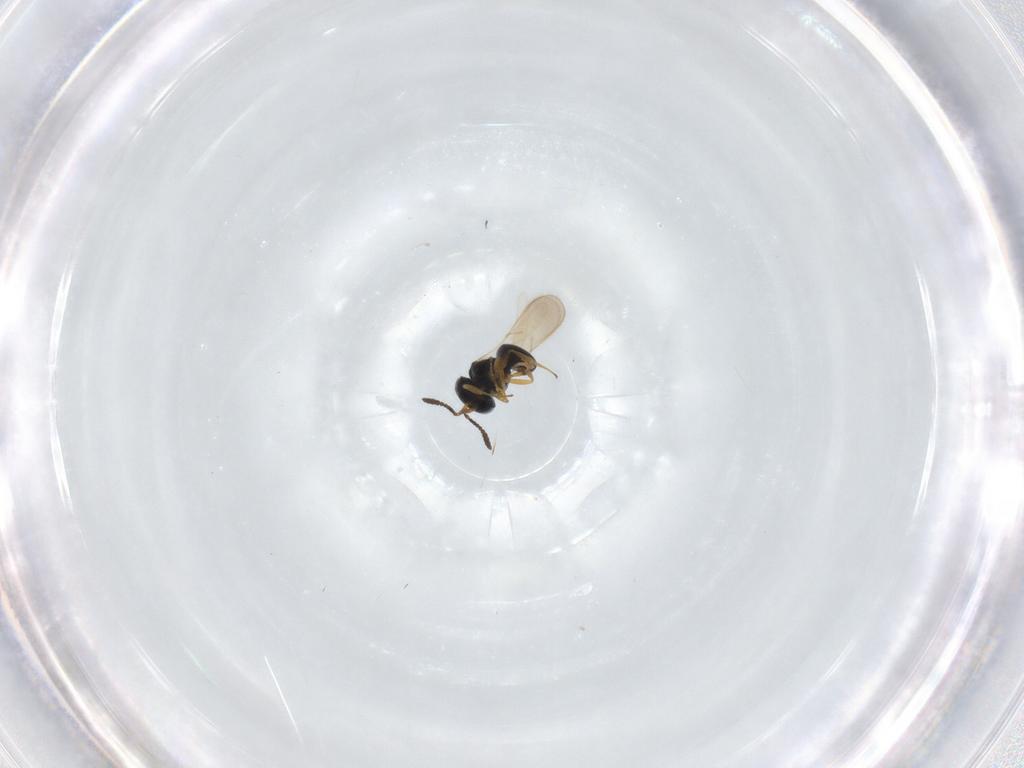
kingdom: Animalia
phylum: Arthropoda
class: Insecta
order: Hymenoptera
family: Scelionidae
